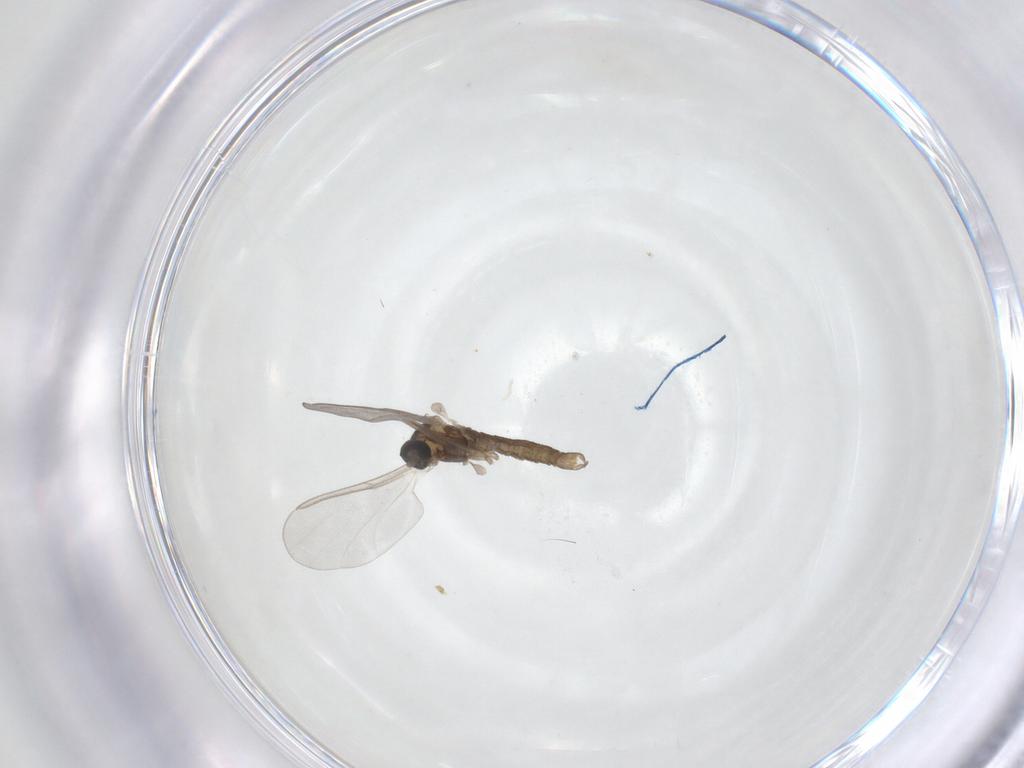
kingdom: Animalia
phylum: Arthropoda
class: Insecta
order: Diptera
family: Cecidomyiidae
